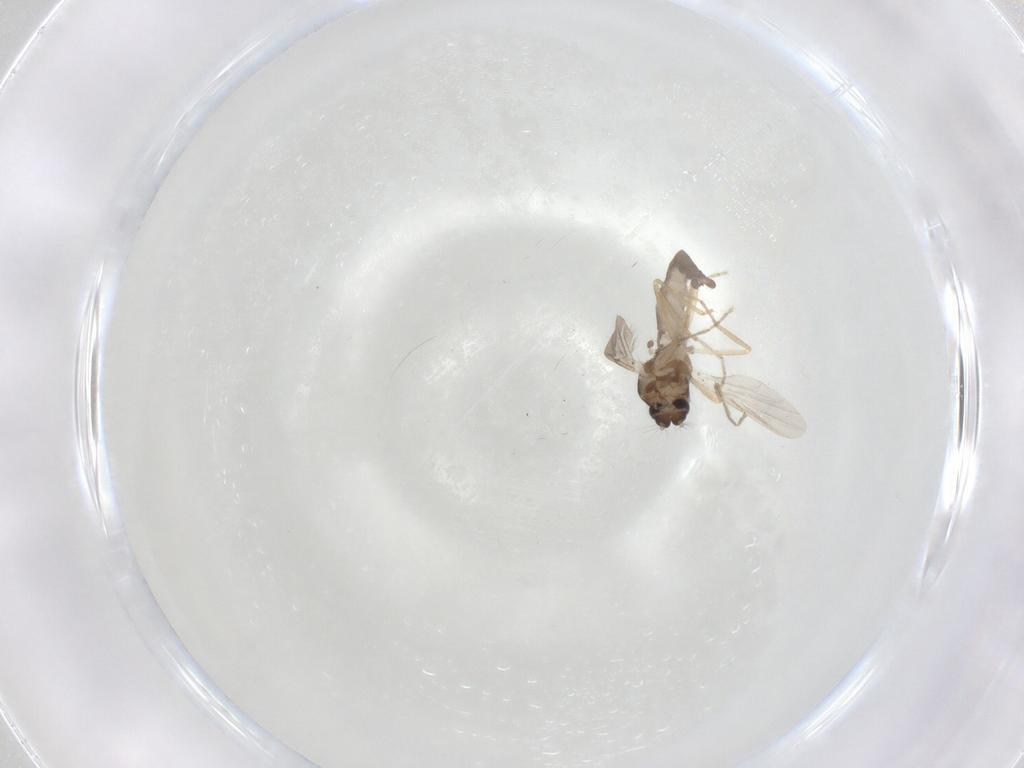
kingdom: Animalia
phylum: Arthropoda
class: Insecta
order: Diptera
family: Ceratopogonidae
